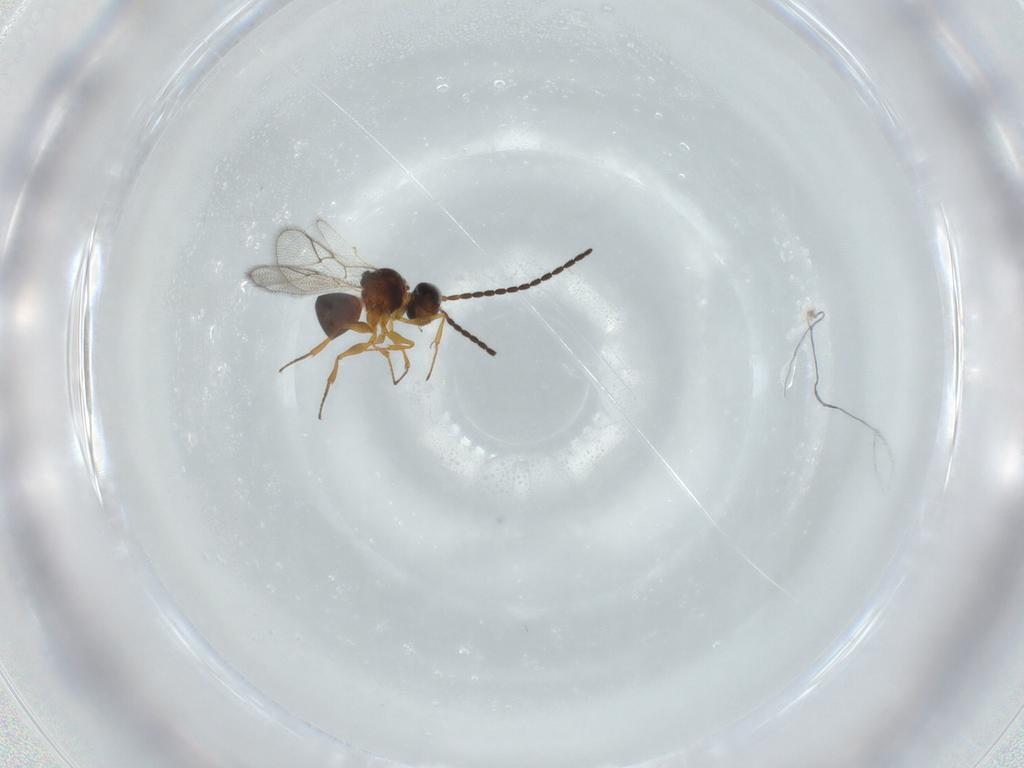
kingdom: Animalia
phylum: Arthropoda
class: Insecta
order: Hymenoptera
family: Figitidae
